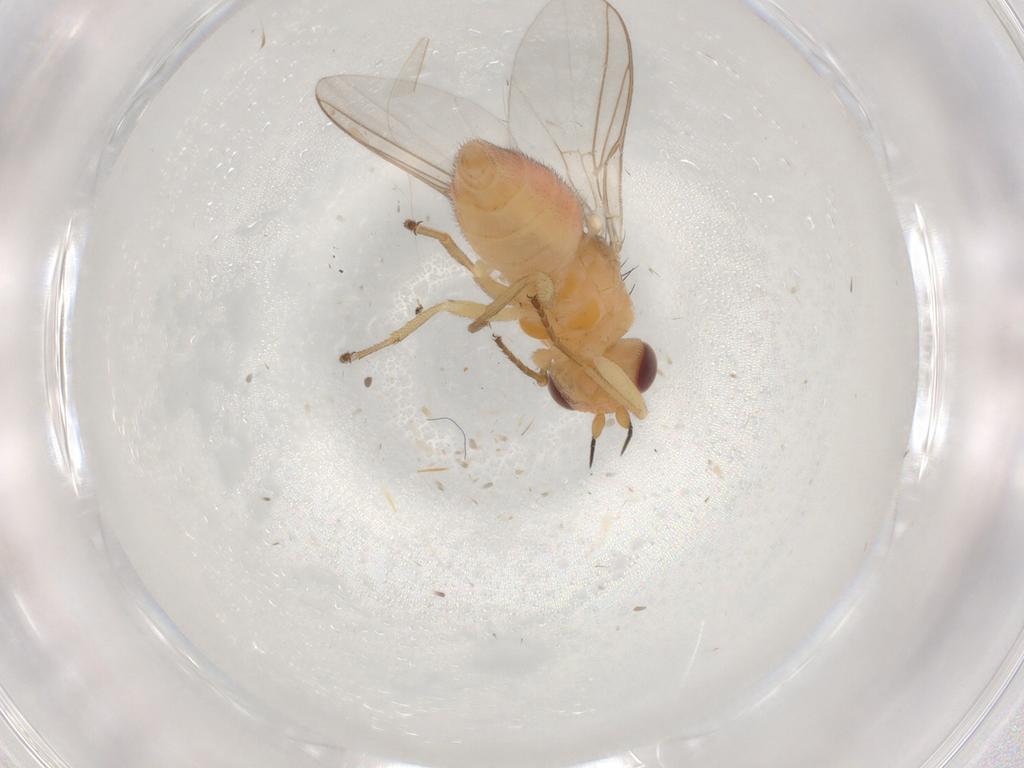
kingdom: Animalia
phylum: Arthropoda
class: Insecta
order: Diptera
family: Chloropidae
